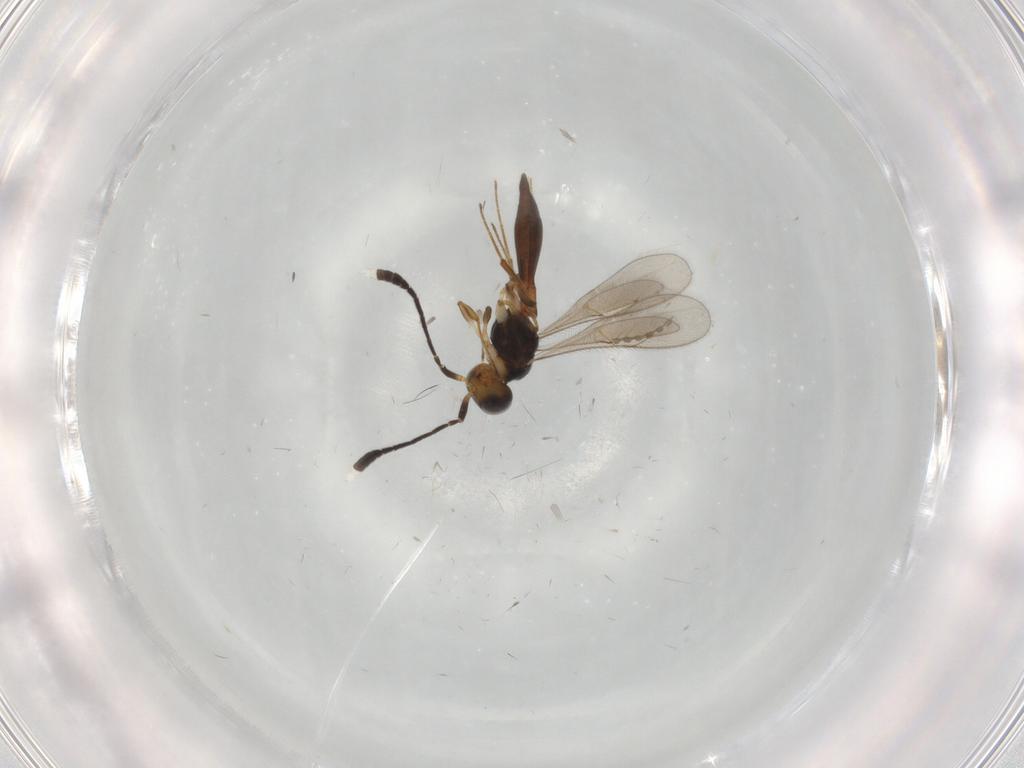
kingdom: Animalia
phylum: Arthropoda
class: Insecta
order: Hymenoptera
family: Scelionidae
